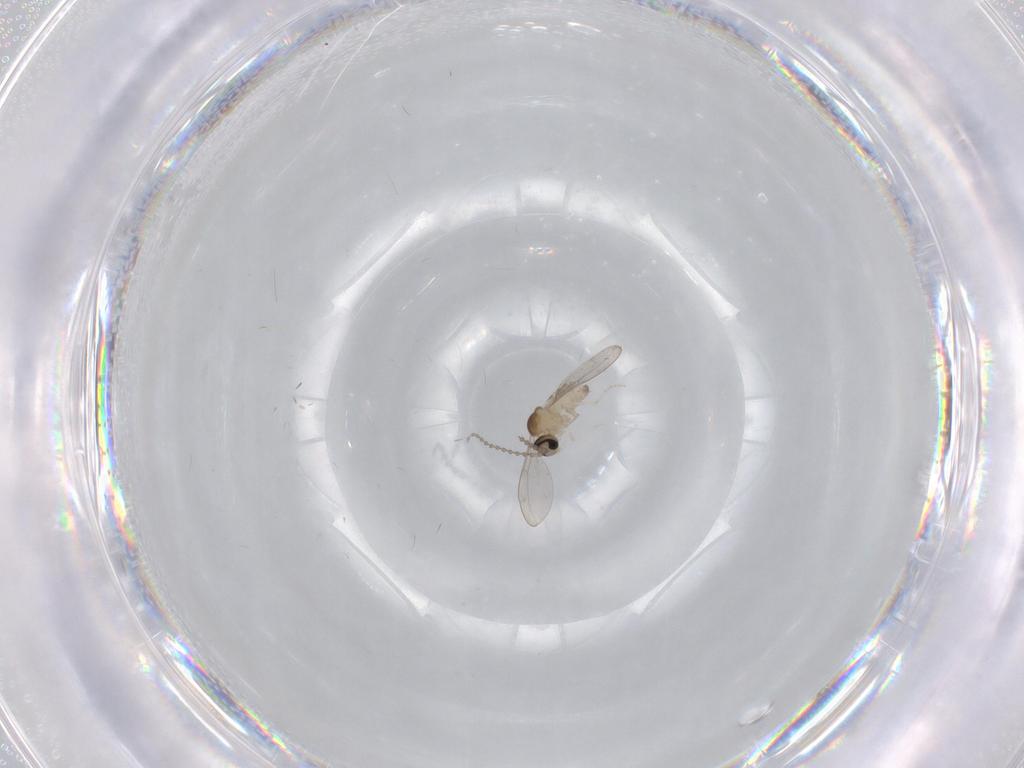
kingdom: Animalia
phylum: Arthropoda
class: Insecta
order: Diptera
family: Cecidomyiidae
